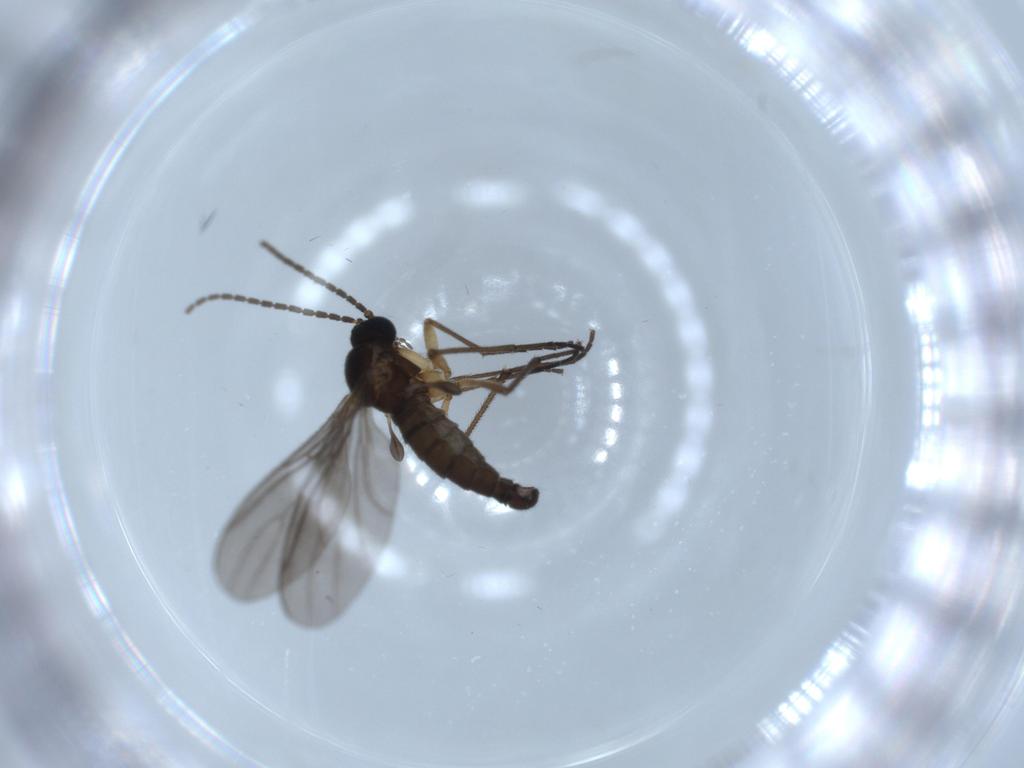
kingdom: Animalia
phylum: Arthropoda
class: Insecta
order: Diptera
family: Sciaridae
